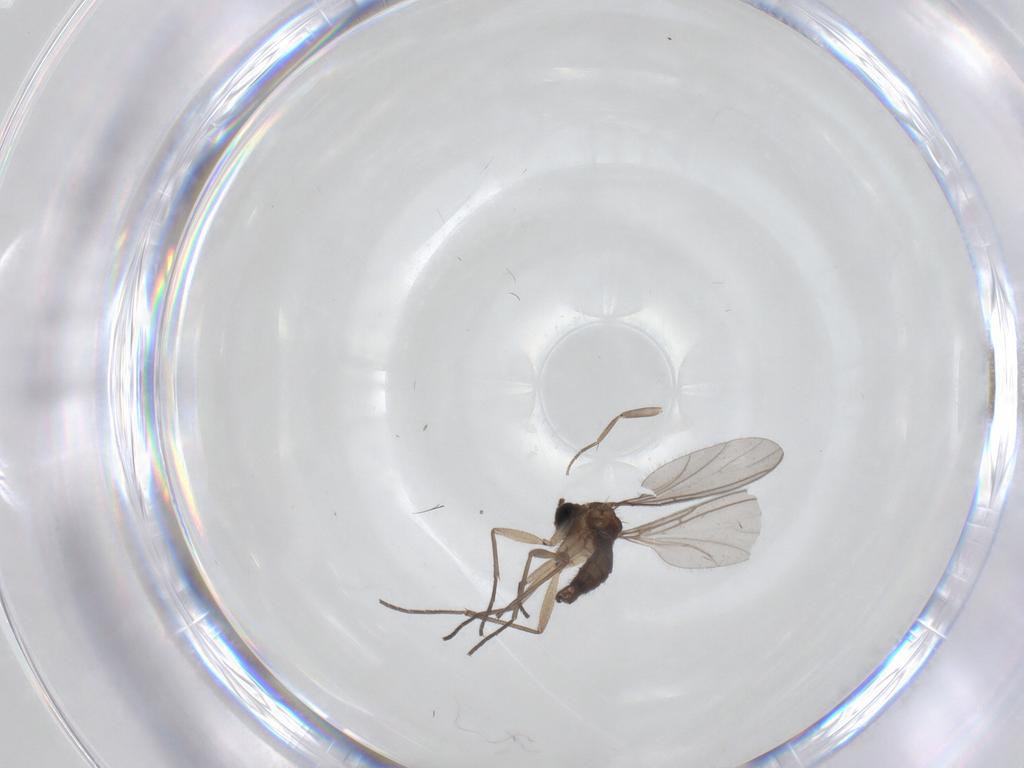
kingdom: Animalia
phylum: Arthropoda
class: Insecta
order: Diptera
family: Sciaridae
